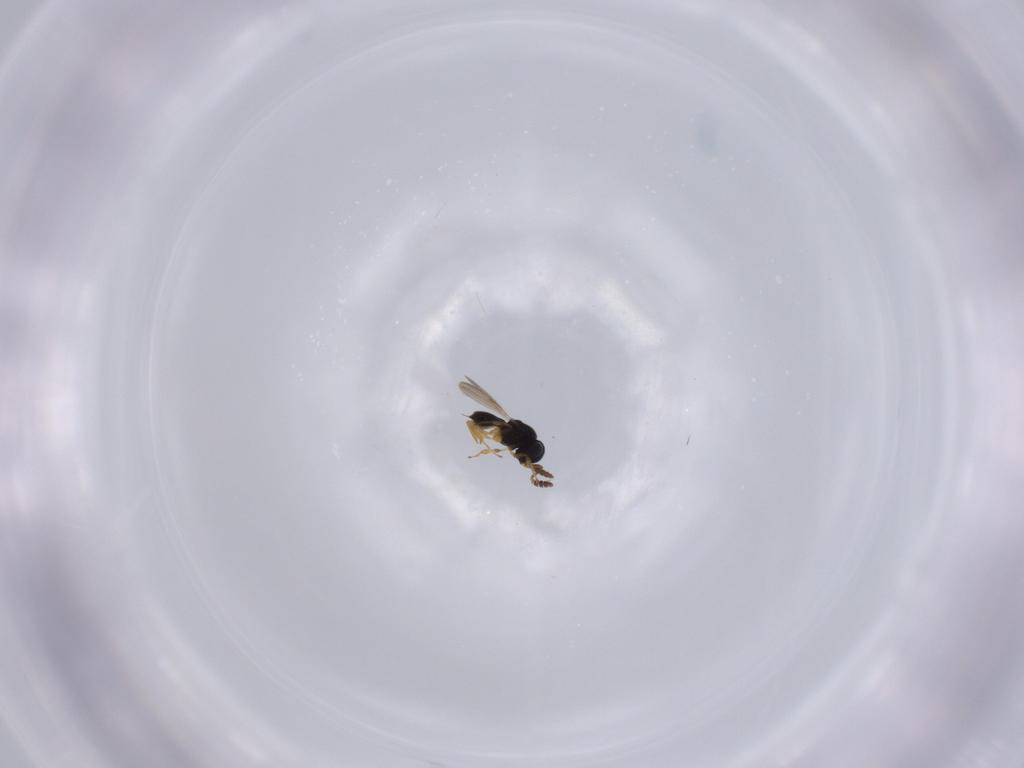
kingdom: Animalia
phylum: Arthropoda
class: Insecta
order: Hymenoptera
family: Scelionidae
